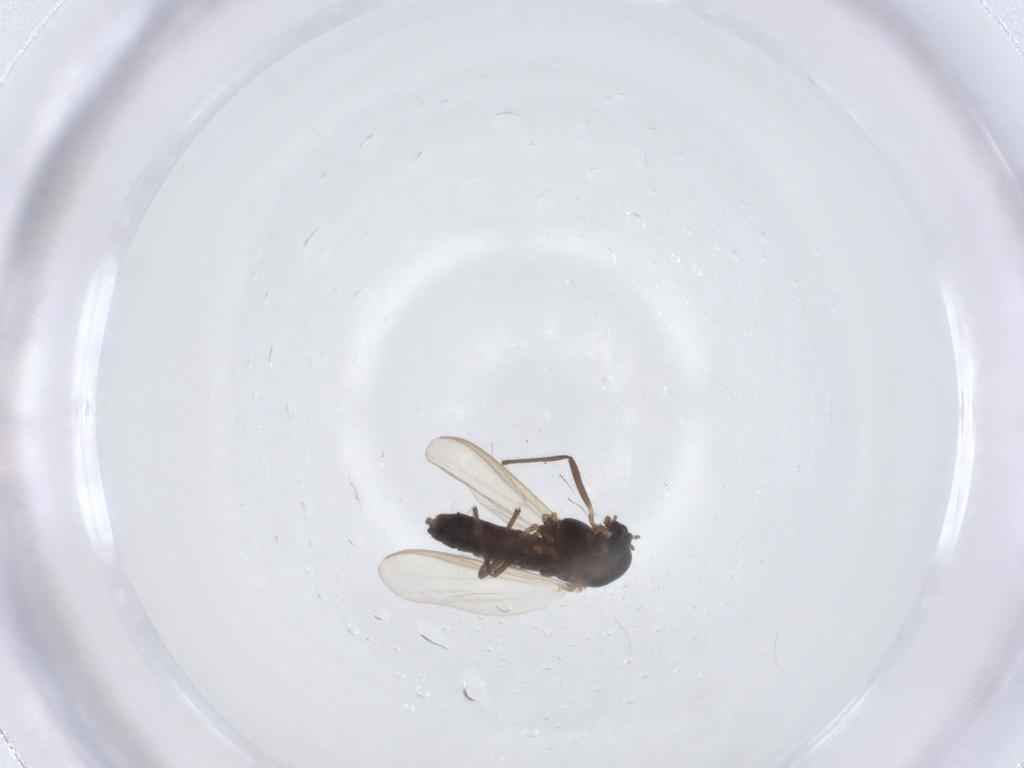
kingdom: Animalia
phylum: Arthropoda
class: Insecta
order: Diptera
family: Chironomidae
